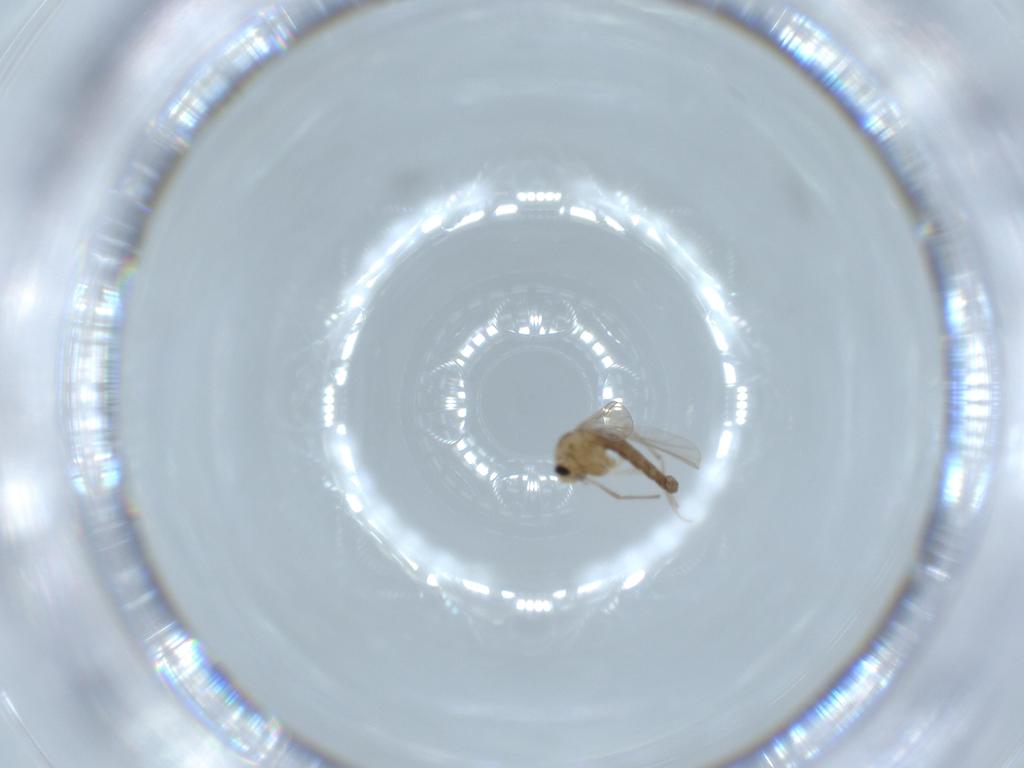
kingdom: Animalia
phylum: Arthropoda
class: Insecta
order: Diptera
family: Chironomidae
